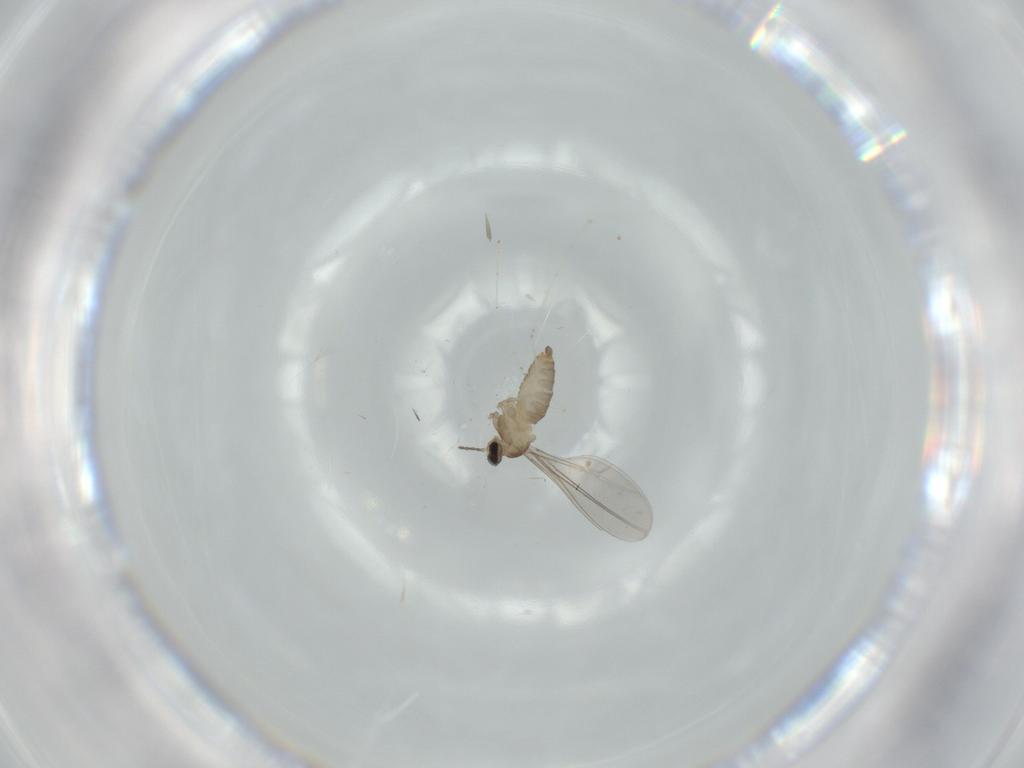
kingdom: Animalia
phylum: Arthropoda
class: Insecta
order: Diptera
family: Cecidomyiidae
